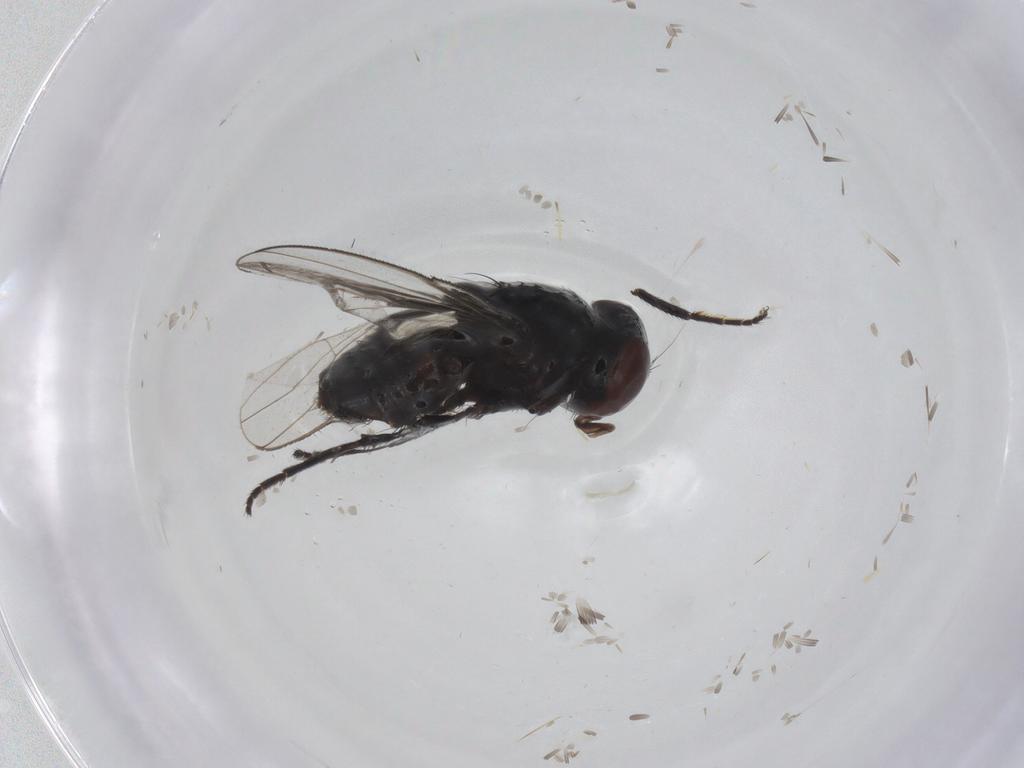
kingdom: Animalia
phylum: Arthropoda
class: Insecta
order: Diptera
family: Milichiidae
